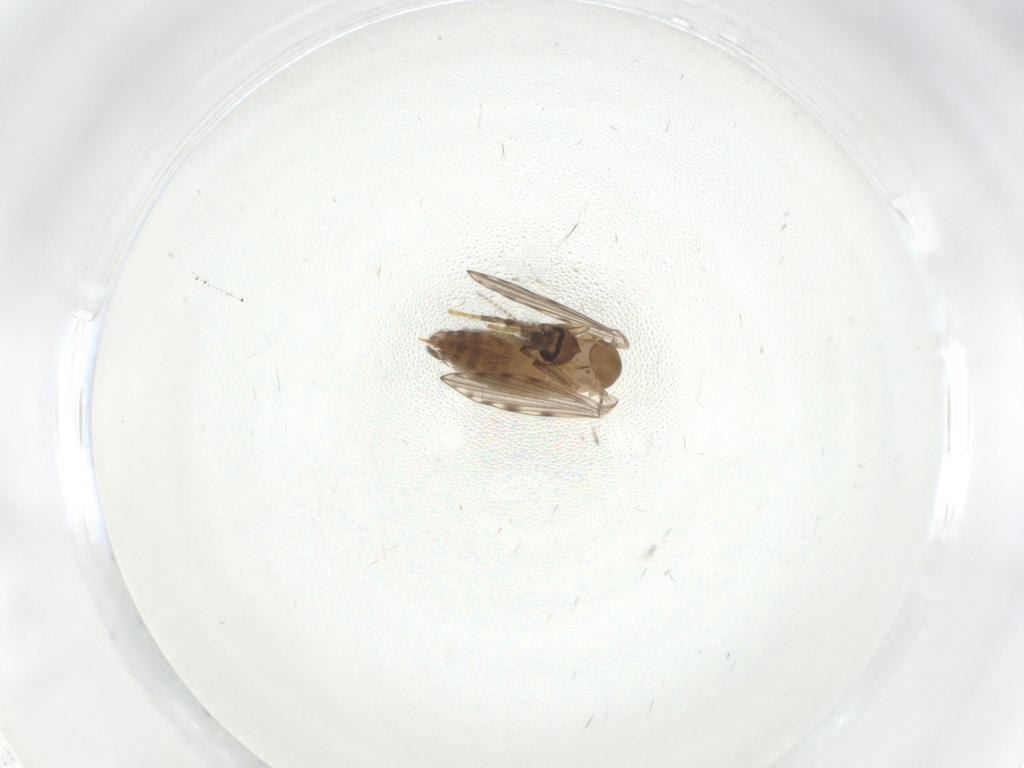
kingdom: Animalia
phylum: Arthropoda
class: Insecta
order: Diptera
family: Psychodidae
